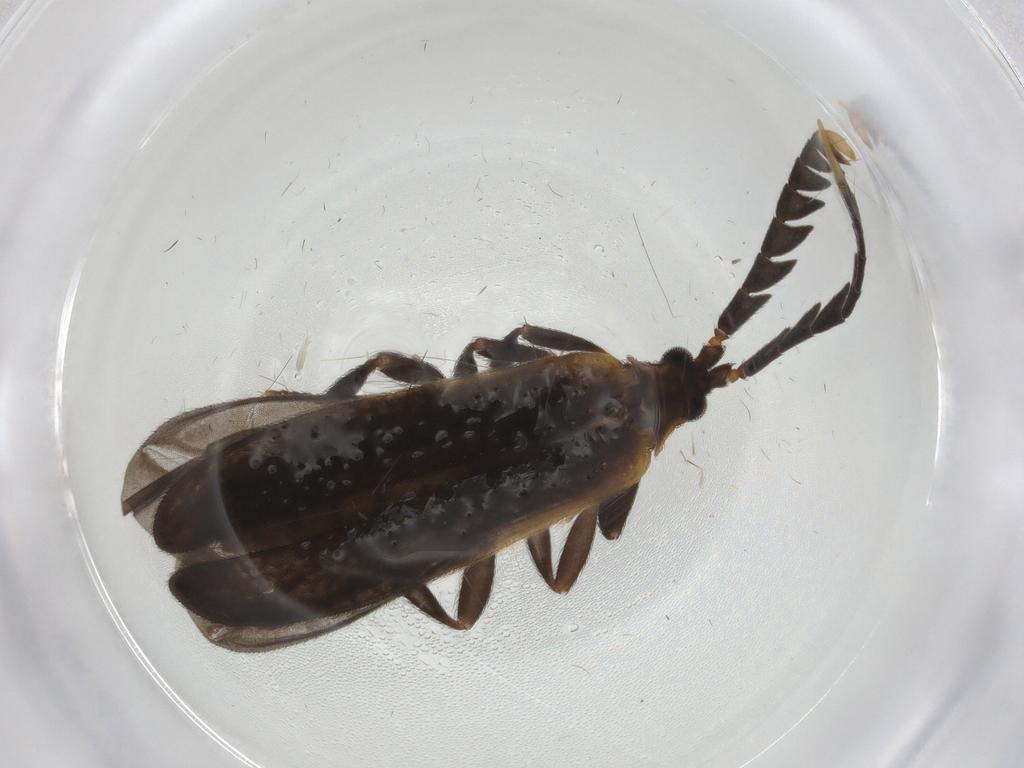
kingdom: Animalia
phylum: Arthropoda
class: Insecta
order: Coleoptera
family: Lycidae
